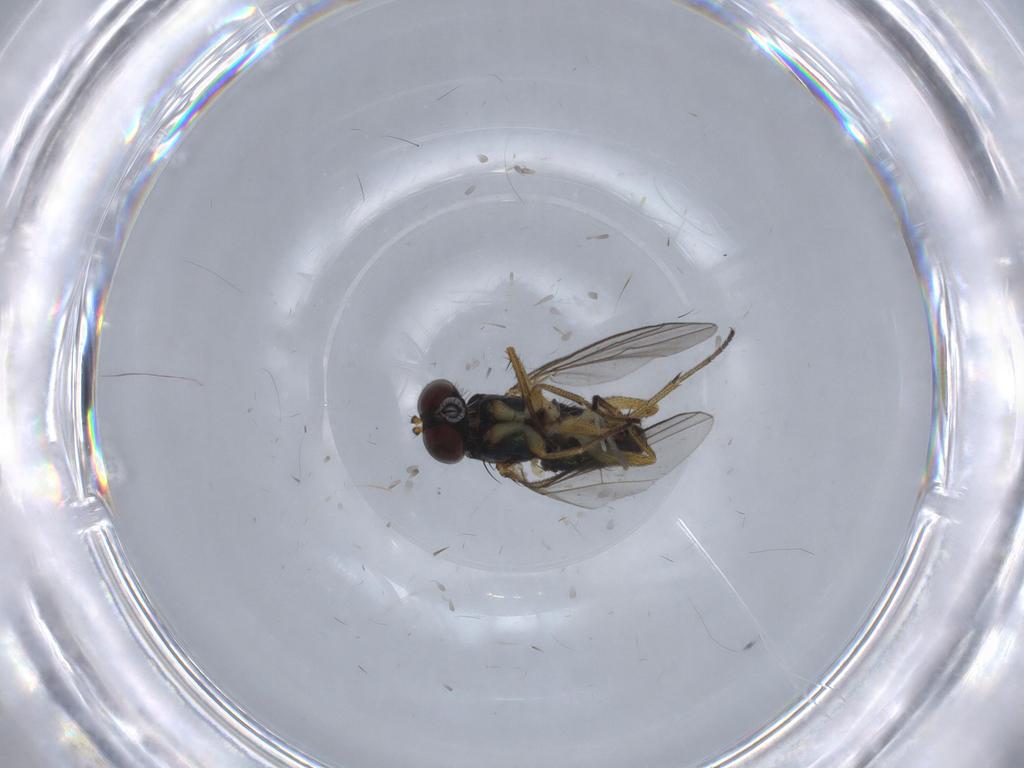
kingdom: Animalia
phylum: Arthropoda
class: Insecta
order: Diptera
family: Psychodidae
